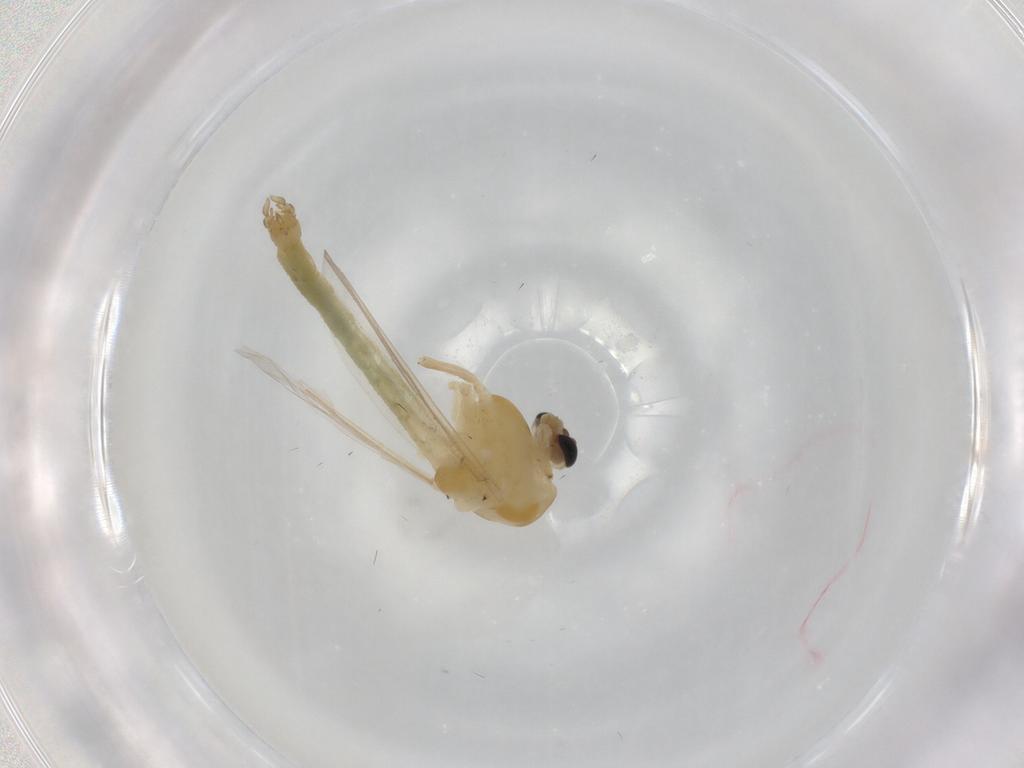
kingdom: Animalia
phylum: Arthropoda
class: Insecta
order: Diptera
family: Chironomidae
